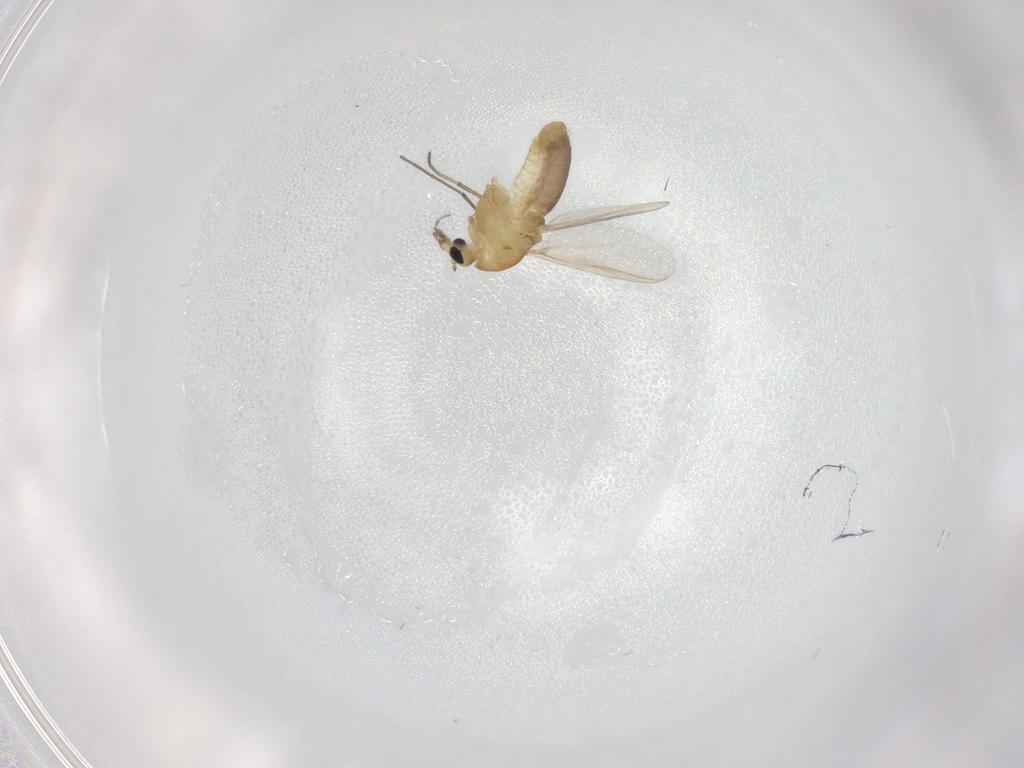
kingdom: Animalia
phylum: Arthropoda
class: Insecta
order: Diptera
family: Chironomidae
